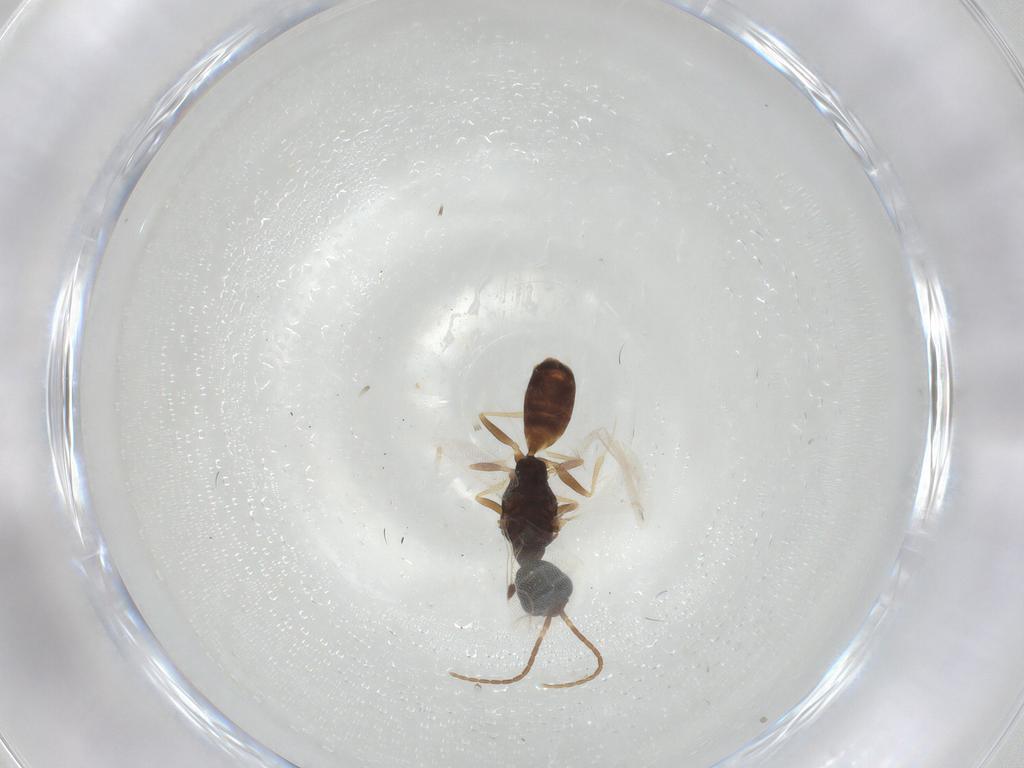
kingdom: Animalia
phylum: Arthropoda
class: Insecta
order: Hymenoptera
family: Bethylidae
